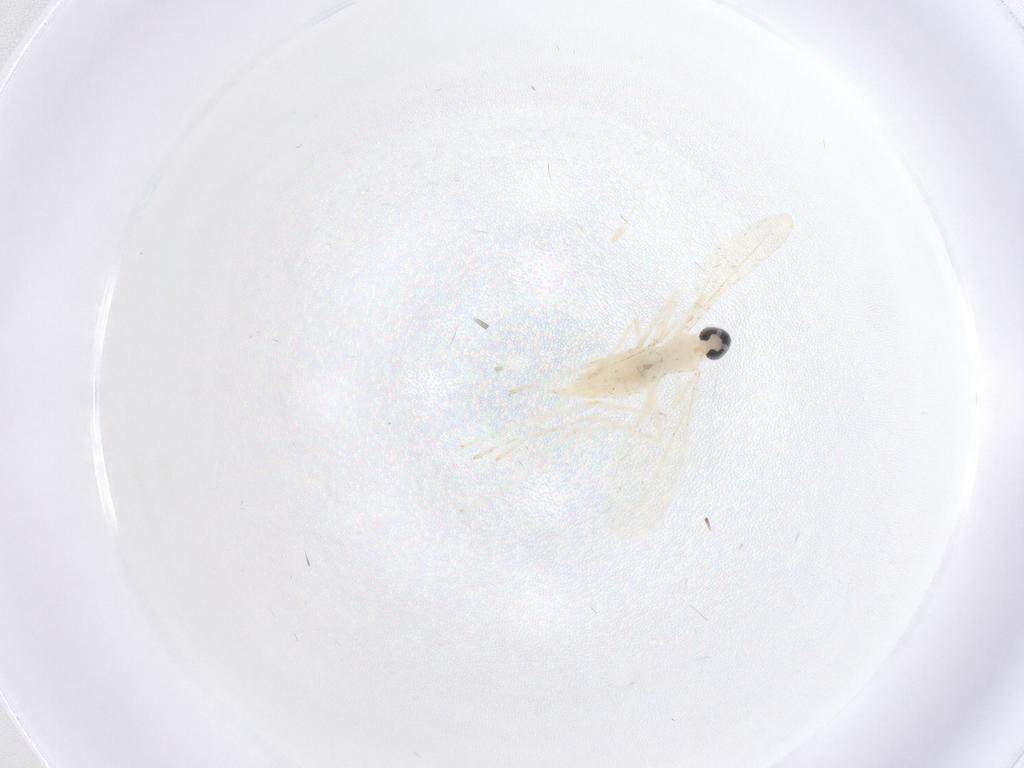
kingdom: Animalia
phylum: Arthropoda
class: Insecta
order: Diptera
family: Cecidomyiidae
